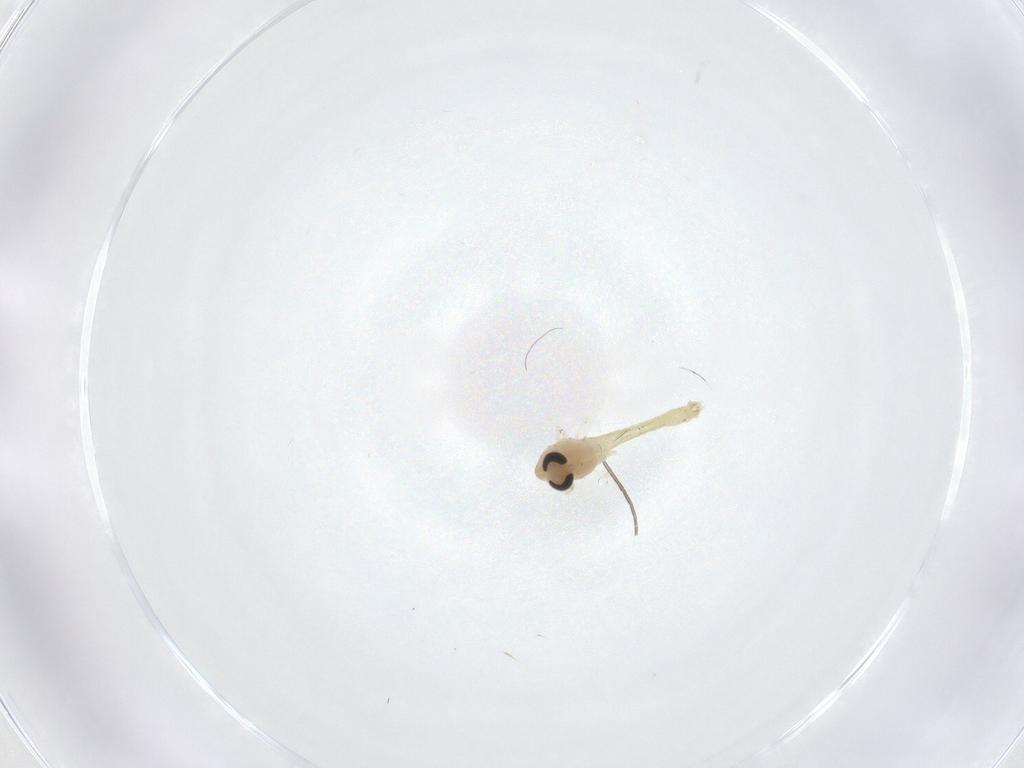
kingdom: Animalia
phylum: Arthropoda
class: Insecta
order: Diptera
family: Chironomidae
